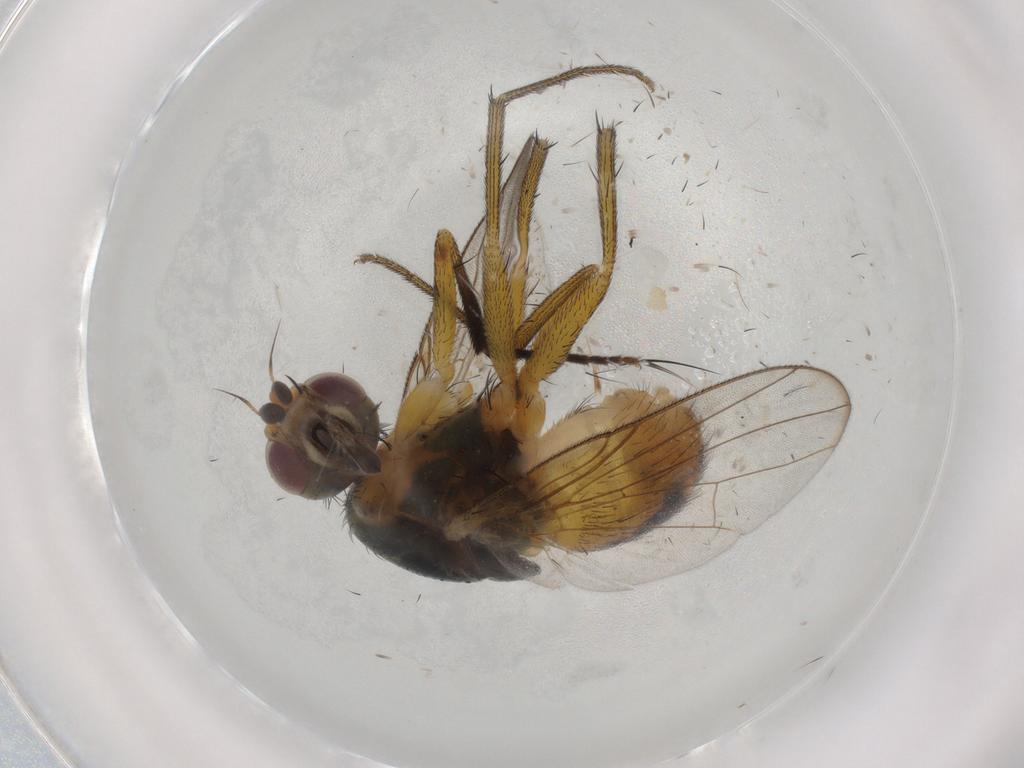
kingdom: Animalia
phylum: Arthropoda
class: Insecta
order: Diptera
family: Muscidae
